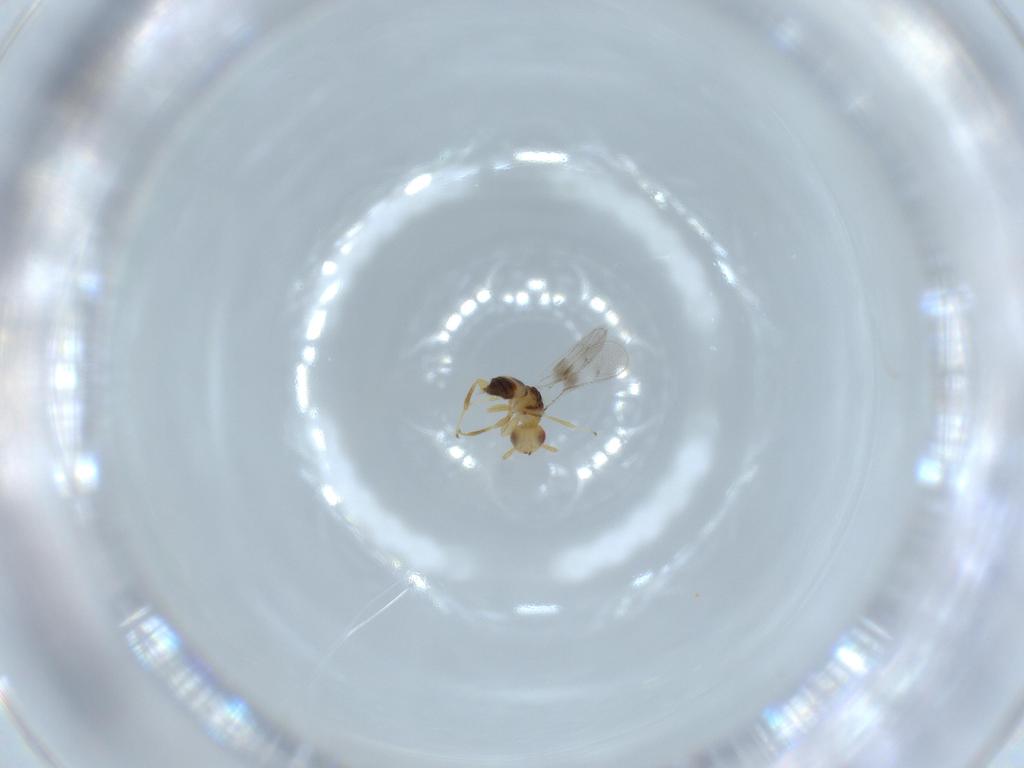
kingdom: Animalia
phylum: Arthropoda
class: Insecta
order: Hymenoptera
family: Torymidae
